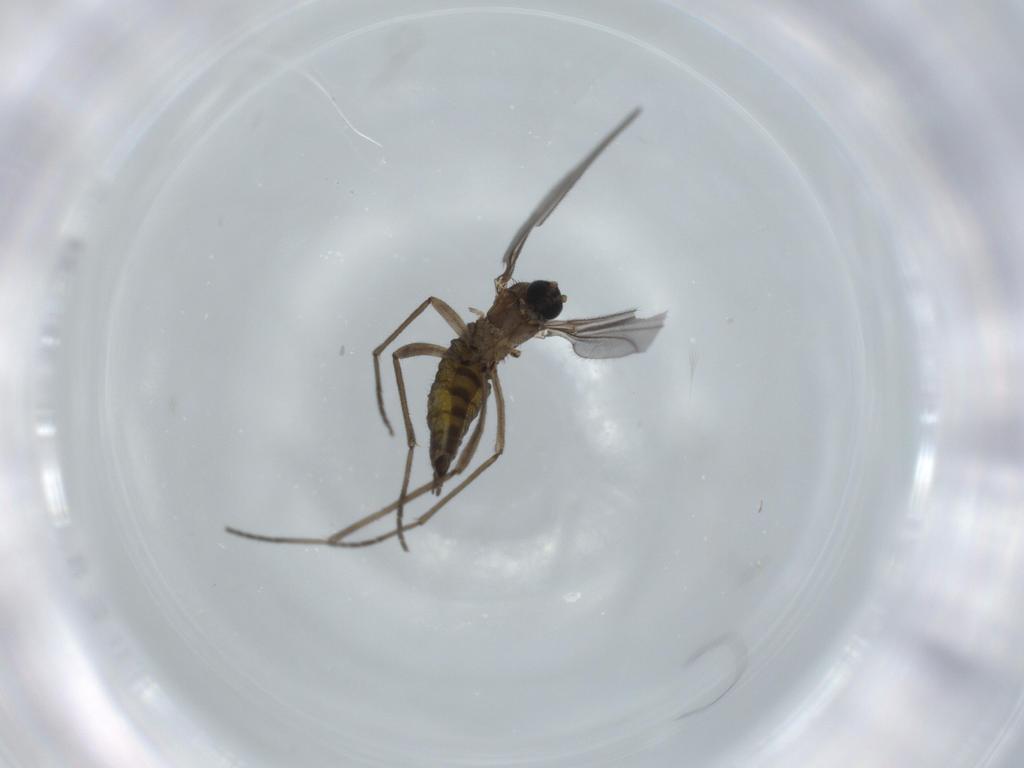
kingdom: Animalia
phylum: Arthropoda
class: Insecta
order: Diptera
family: Sciaridae
